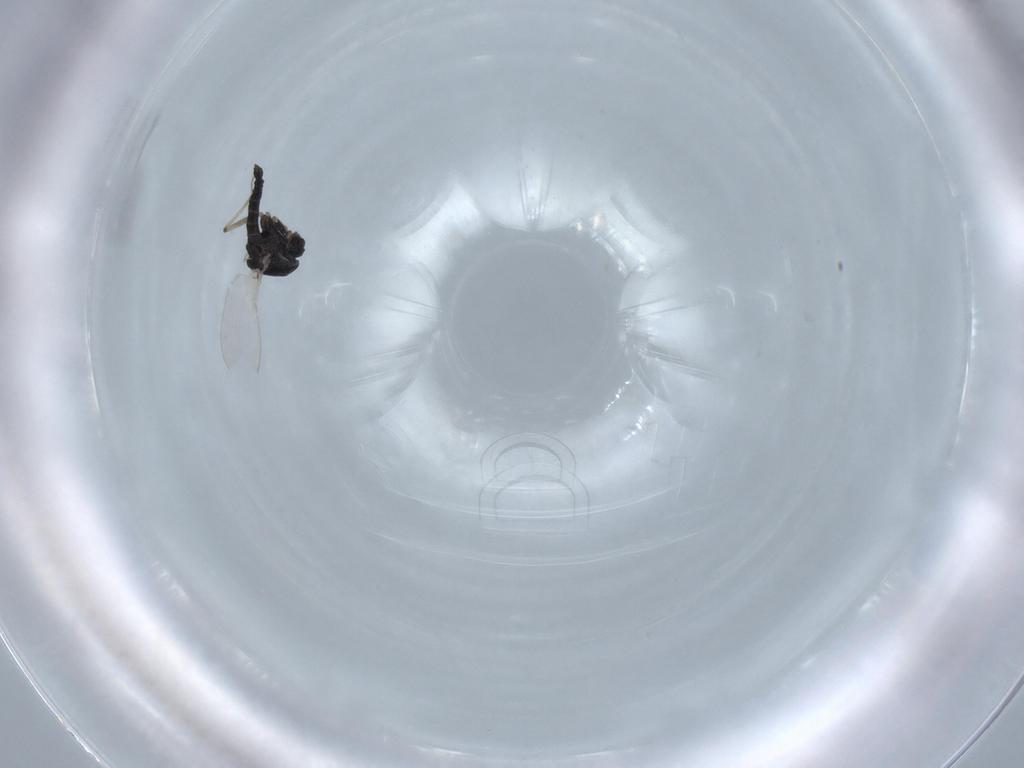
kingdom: Animalia
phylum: Arthropoda
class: Insecta
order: Diptera
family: Chironomidae
